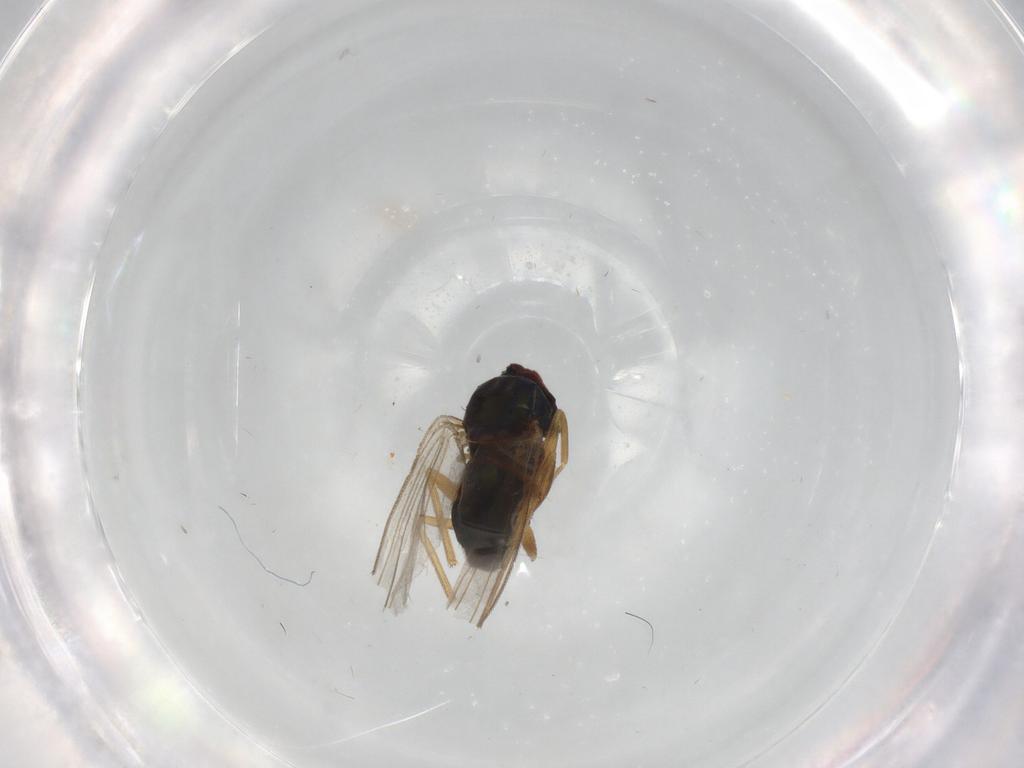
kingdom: Animalia
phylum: Arthropoda
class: Insecta
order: Diptera
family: Dolichopodidae
